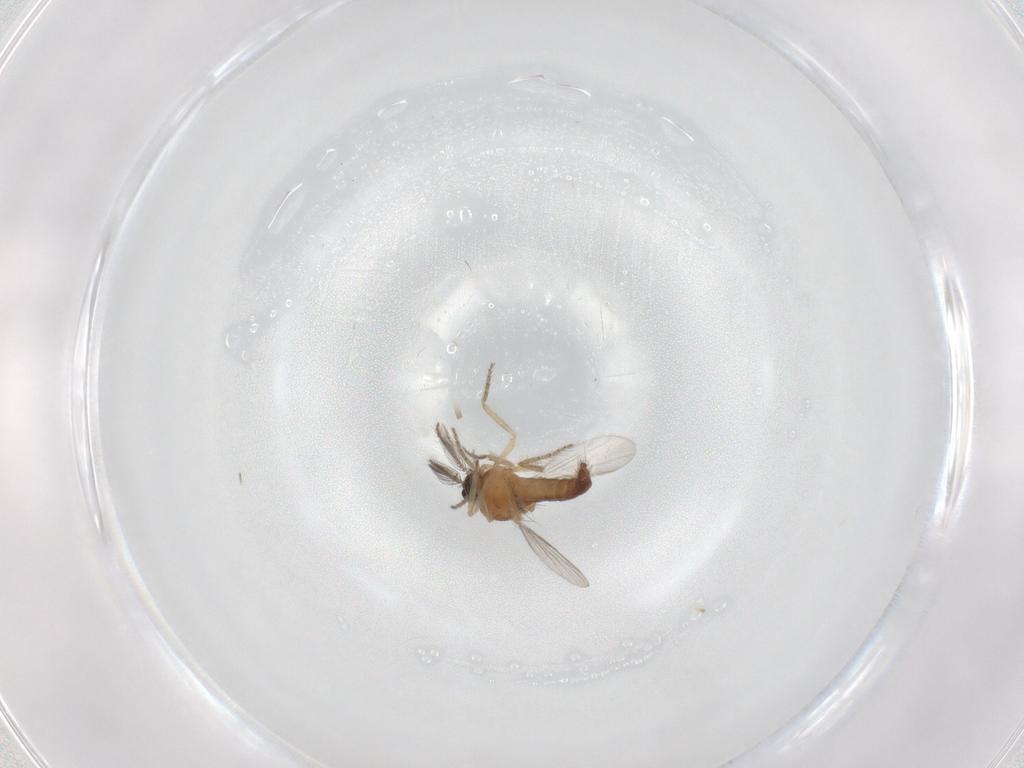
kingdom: Animalia
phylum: Arthropoda
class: Insecta
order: Diptera
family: Ceratopogonidae
